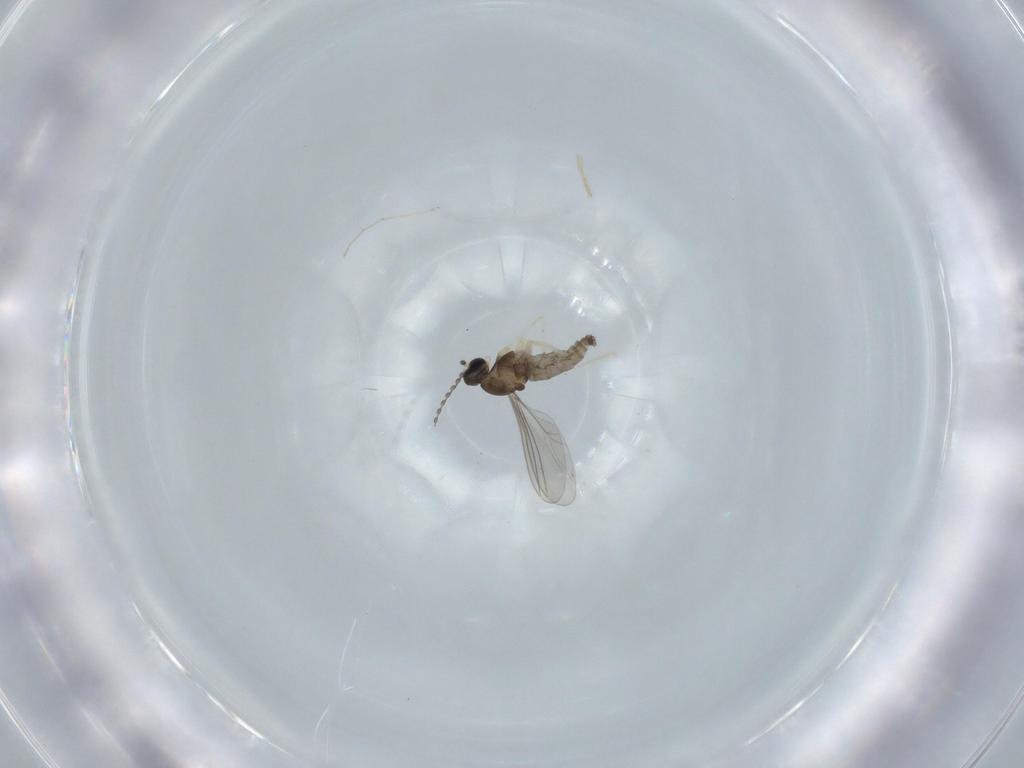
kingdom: Animalia
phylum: Arthropoda
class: Insecta
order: Diptera
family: Cecidomyiidae
